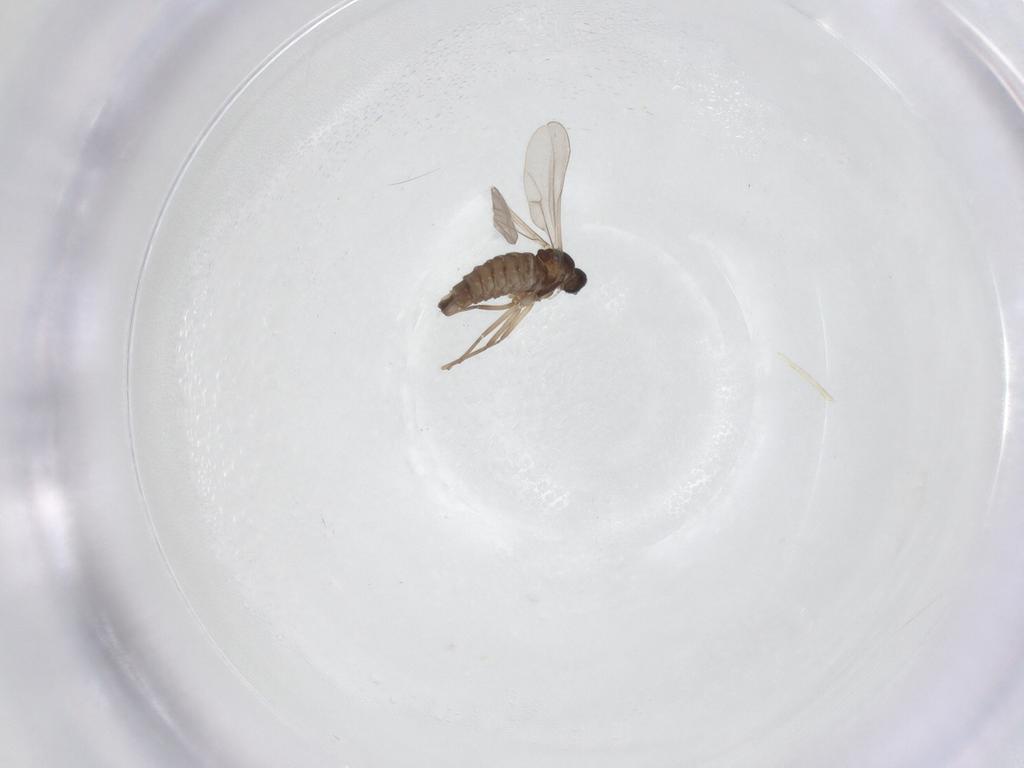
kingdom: Animalia
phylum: Arthropoda
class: Insecta
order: Diptera
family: Cecidomyiidae
